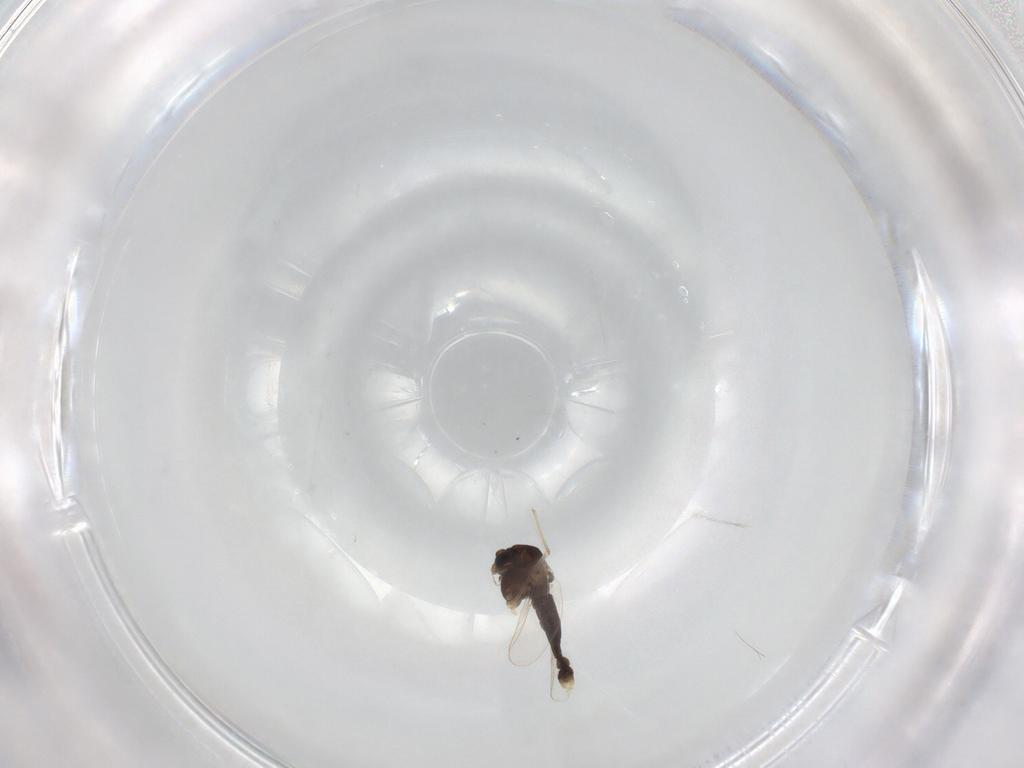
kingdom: Animalia
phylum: Arthropoda
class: Insecta
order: Diptera
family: Chironomidae
